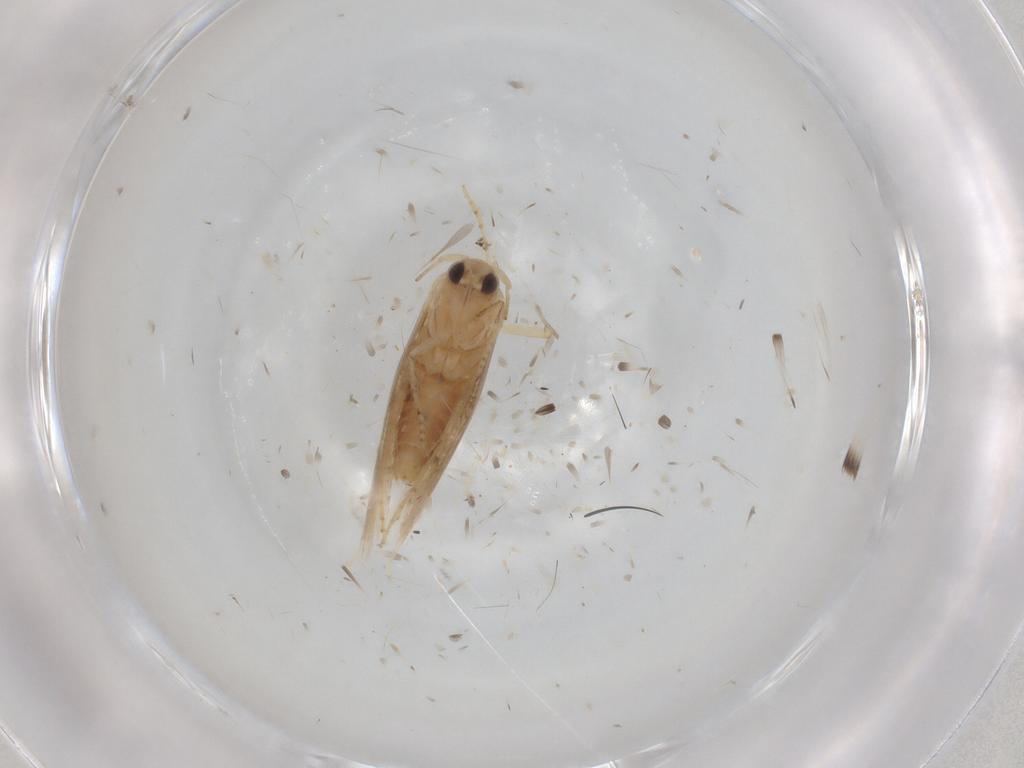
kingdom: Animalia
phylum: Arthropoda
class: Insecta
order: Lepidoptera
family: Bucculatricidae
